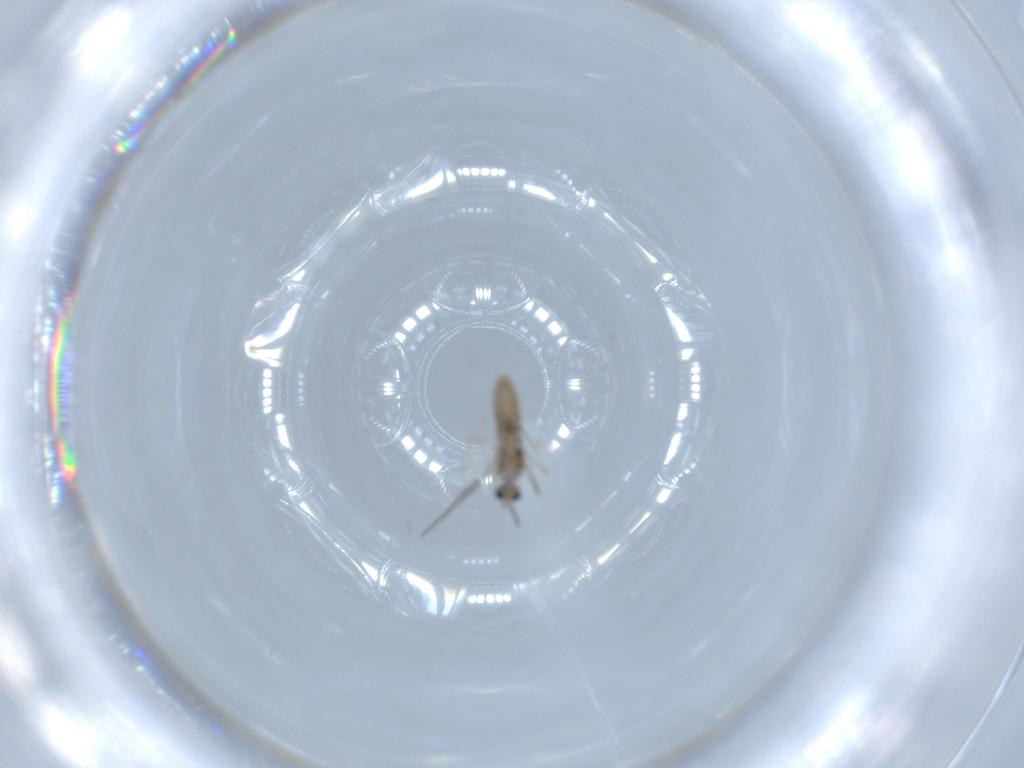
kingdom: Animalia
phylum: Arthropoda
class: Insecta
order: Diptera
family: Cecidomyiidae
